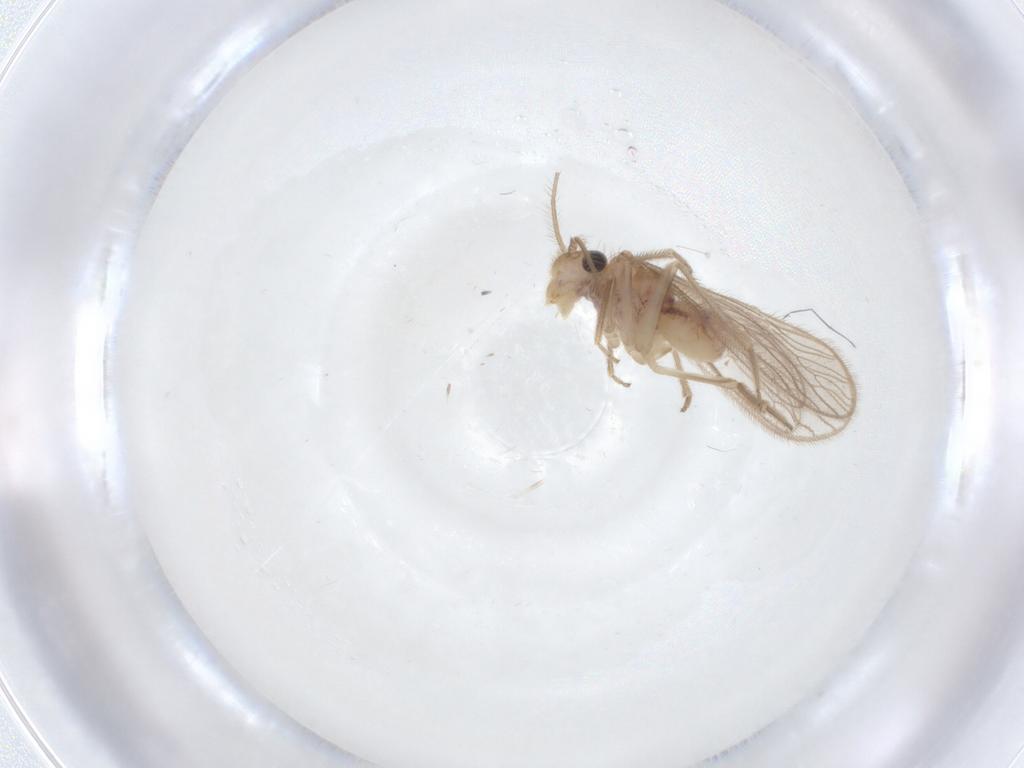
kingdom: Animalia
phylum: Arthropoda
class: Insecta
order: Psocodea
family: Cladiopsocidae
